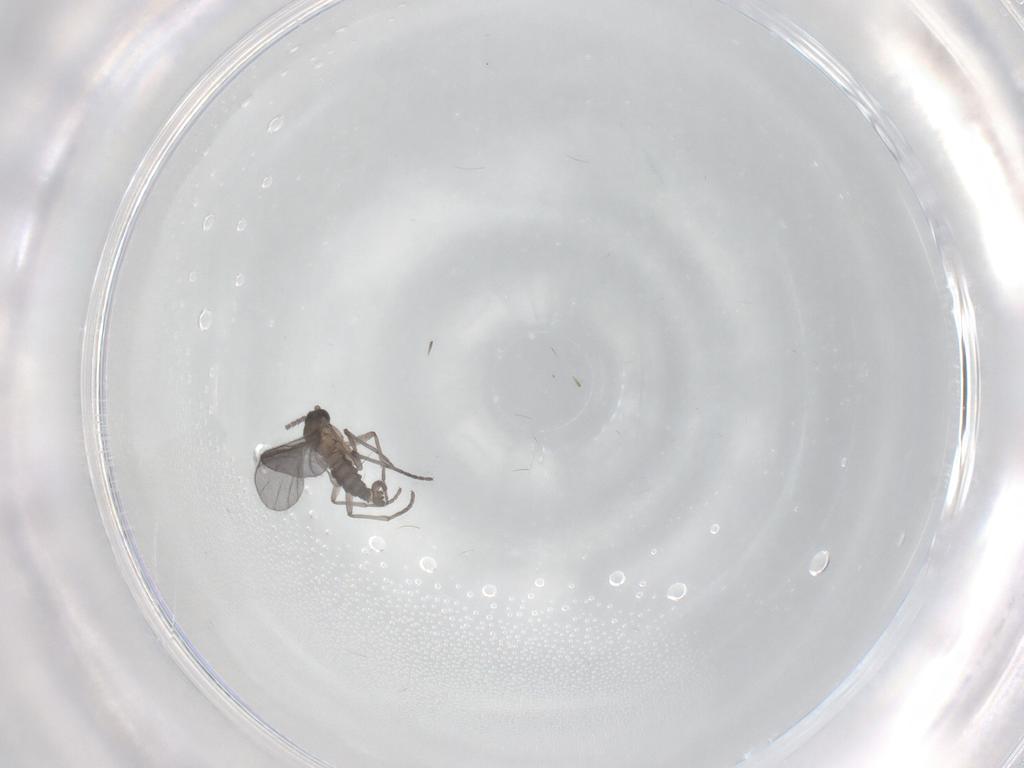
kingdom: Animalia
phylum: Arthropoda
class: Insecta
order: Diptera
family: Sciaridae
